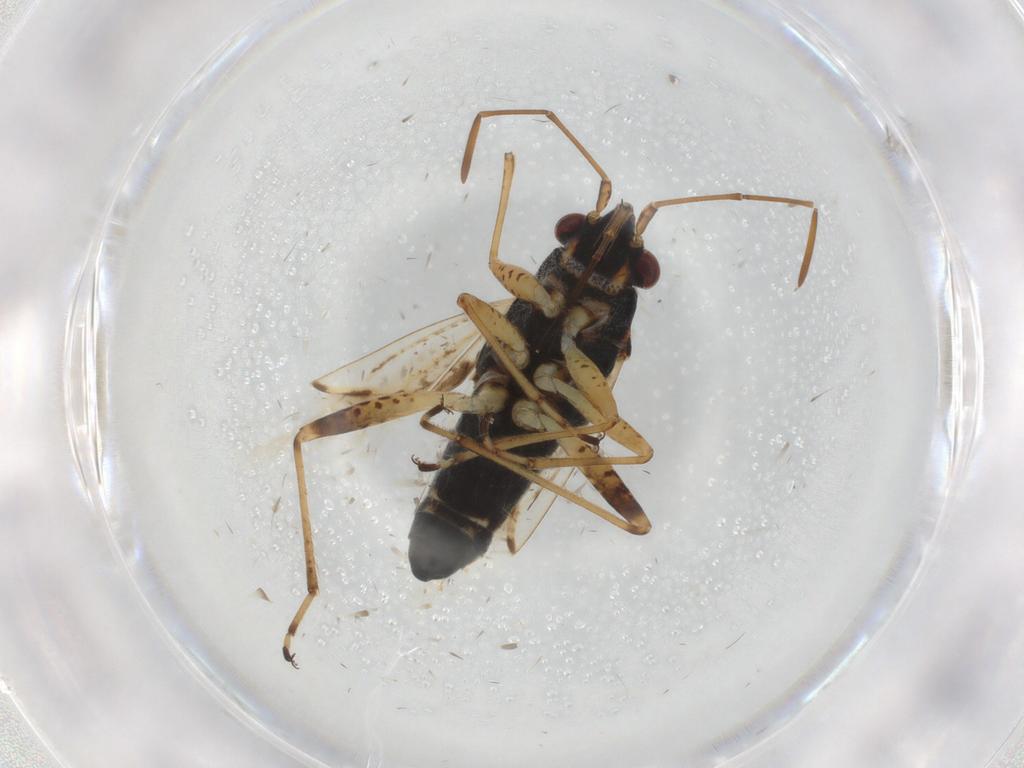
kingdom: Animalia
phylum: Arthropoda
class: Insecta
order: Hemiptera
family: Lygaeidae
